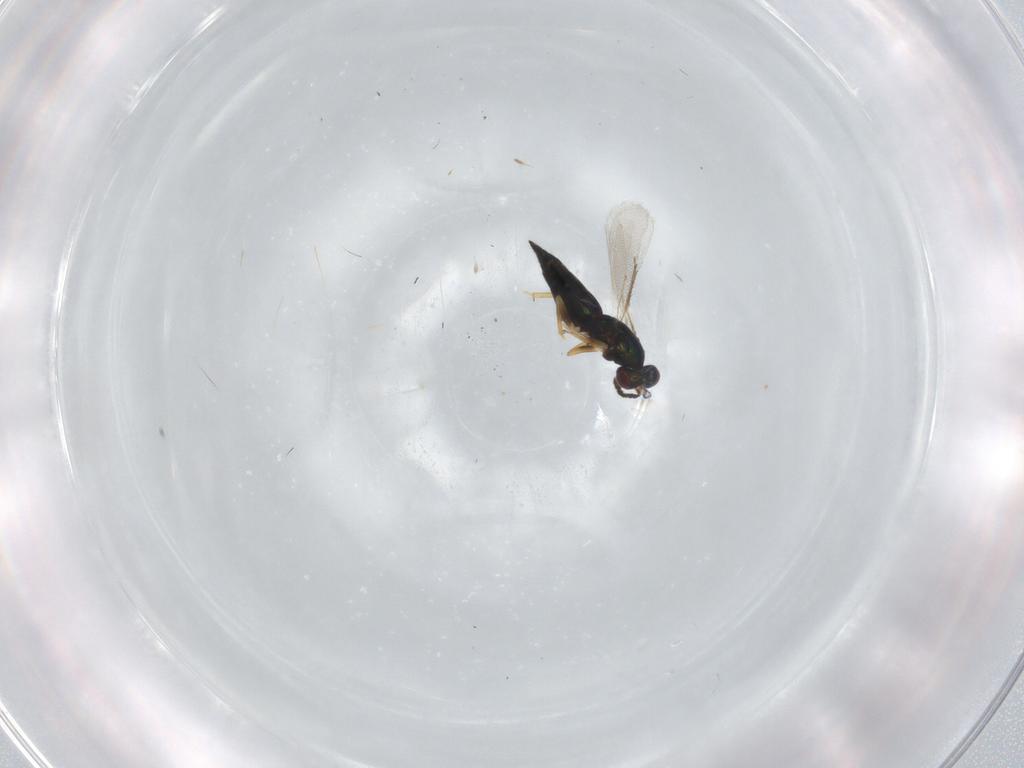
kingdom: Animalia
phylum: Arthropoda
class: Insecta
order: Hymenoptera
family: Eulophidae
